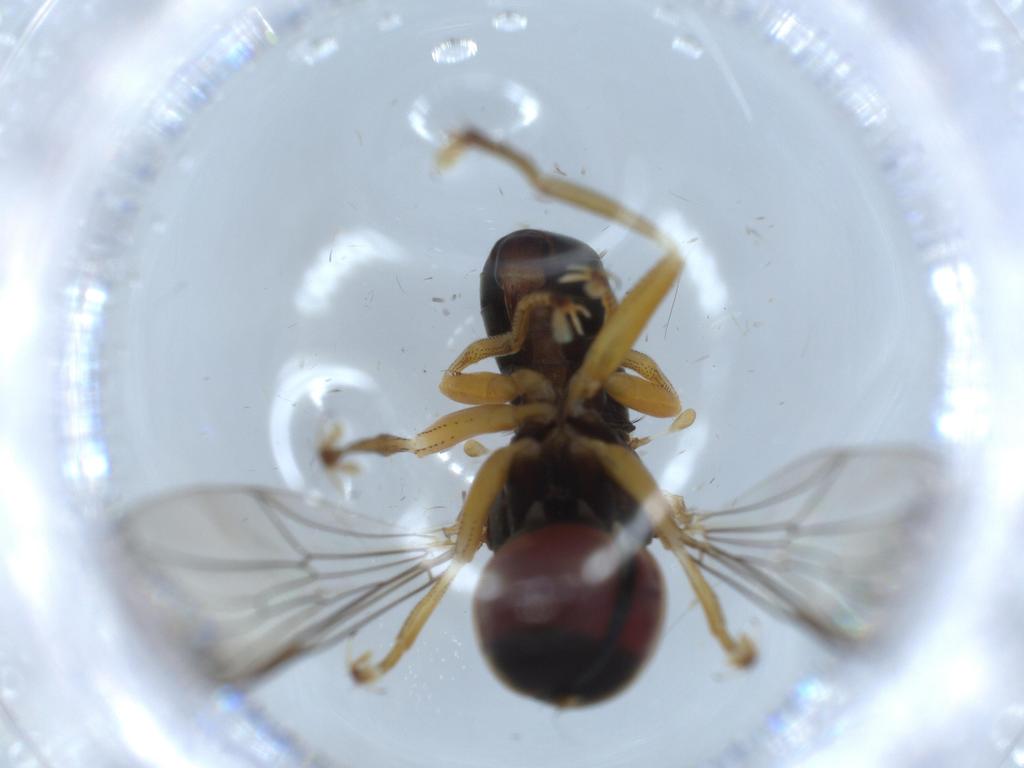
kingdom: Animalia
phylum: Arthropoda
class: Insecta
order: Diptera
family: Pipunculidae
